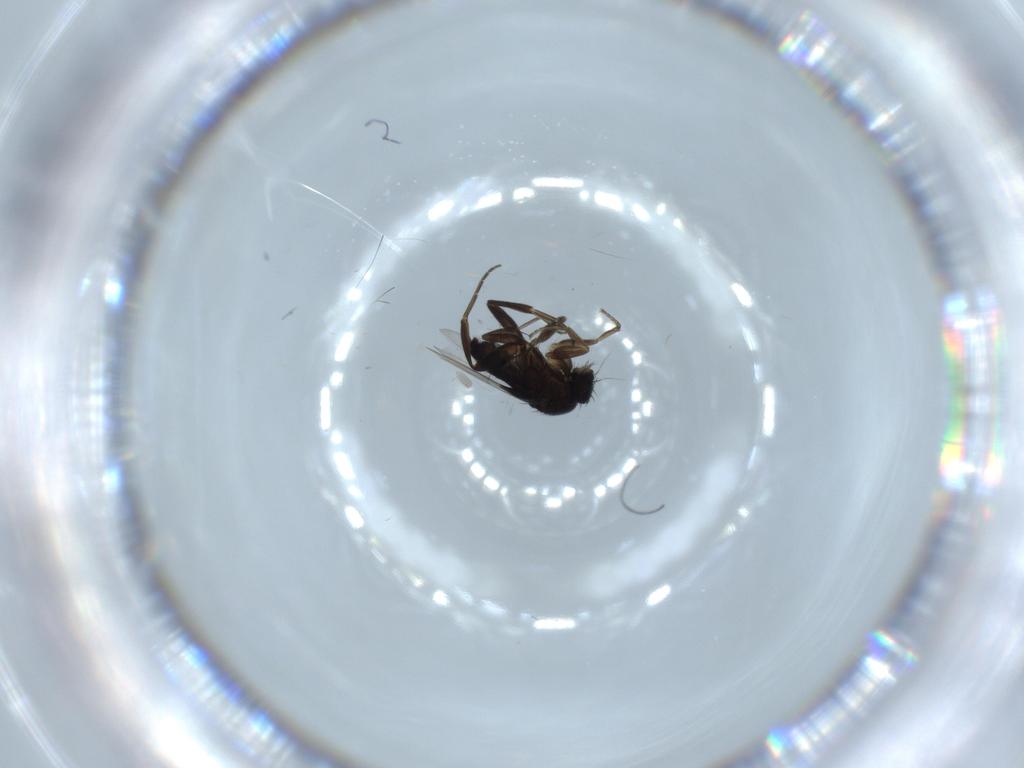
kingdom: Animalia
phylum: Arthropoda
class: Insecta
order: Diptera
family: Phoridae
